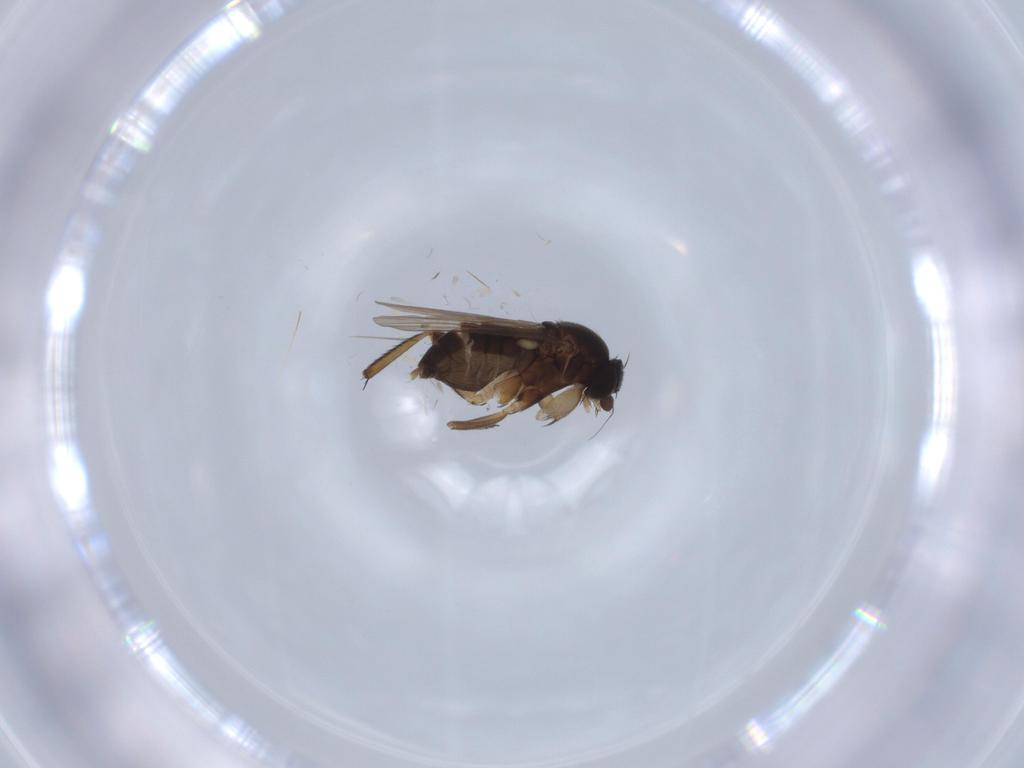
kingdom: Animalia
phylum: Arthropoda
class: Insecta
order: Diptera
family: Phoridae
